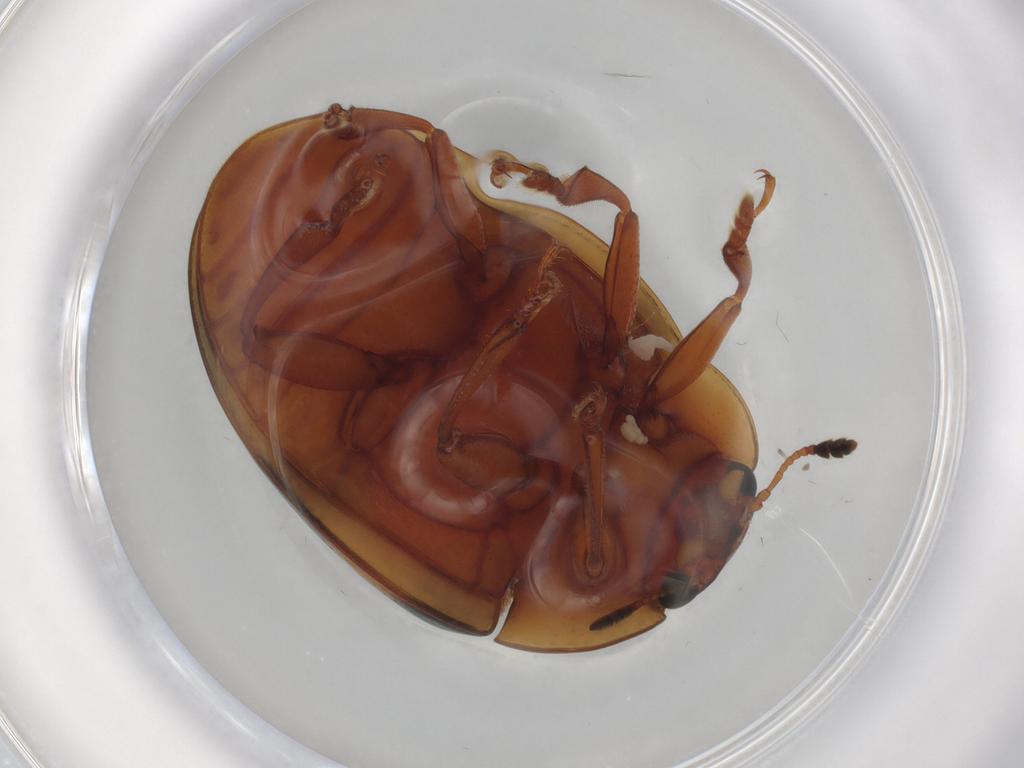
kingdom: Animalia
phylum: Arthropoda
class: Insecta
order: Coleoptera
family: Erotylidae
